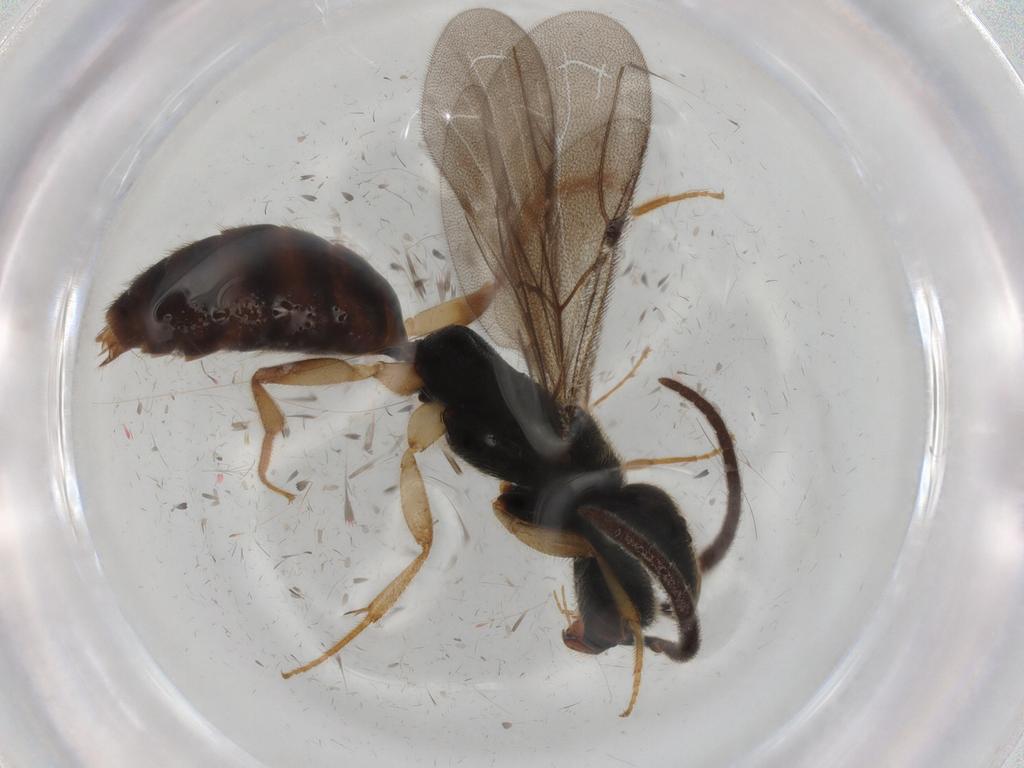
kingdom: Animalia
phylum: Arthropoda
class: Insecta
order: Hymenoptera
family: Bethylidae
